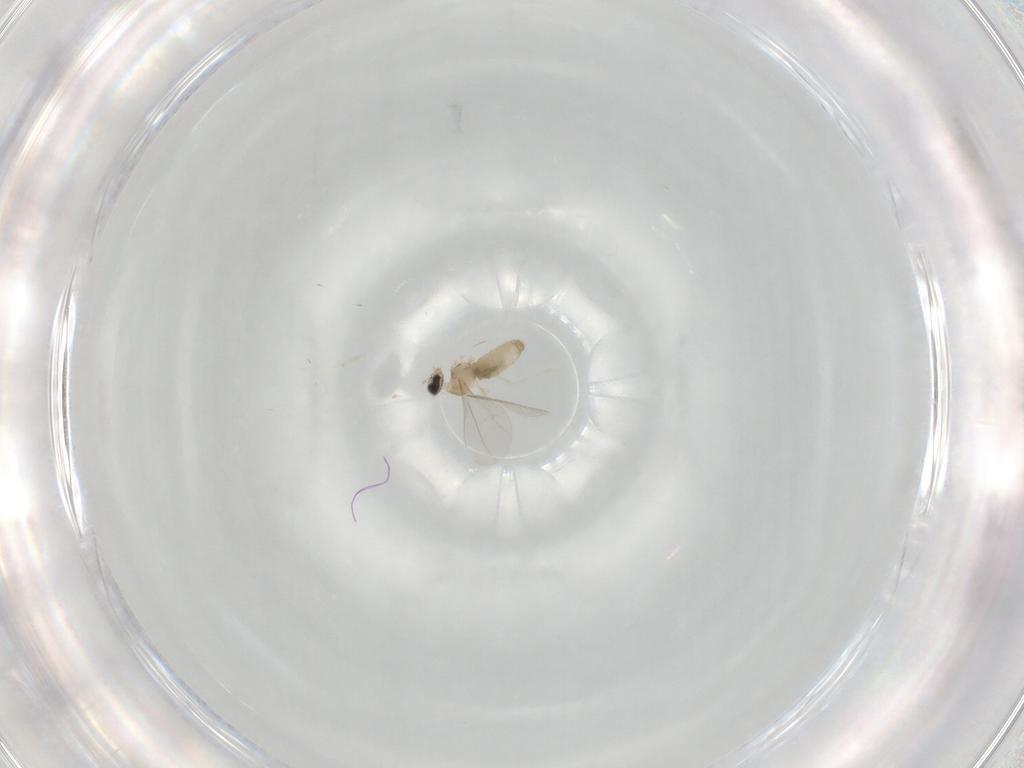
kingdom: Animalia
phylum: Arthropoda
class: Insecta
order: Diptera
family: Cecidomyiidae
